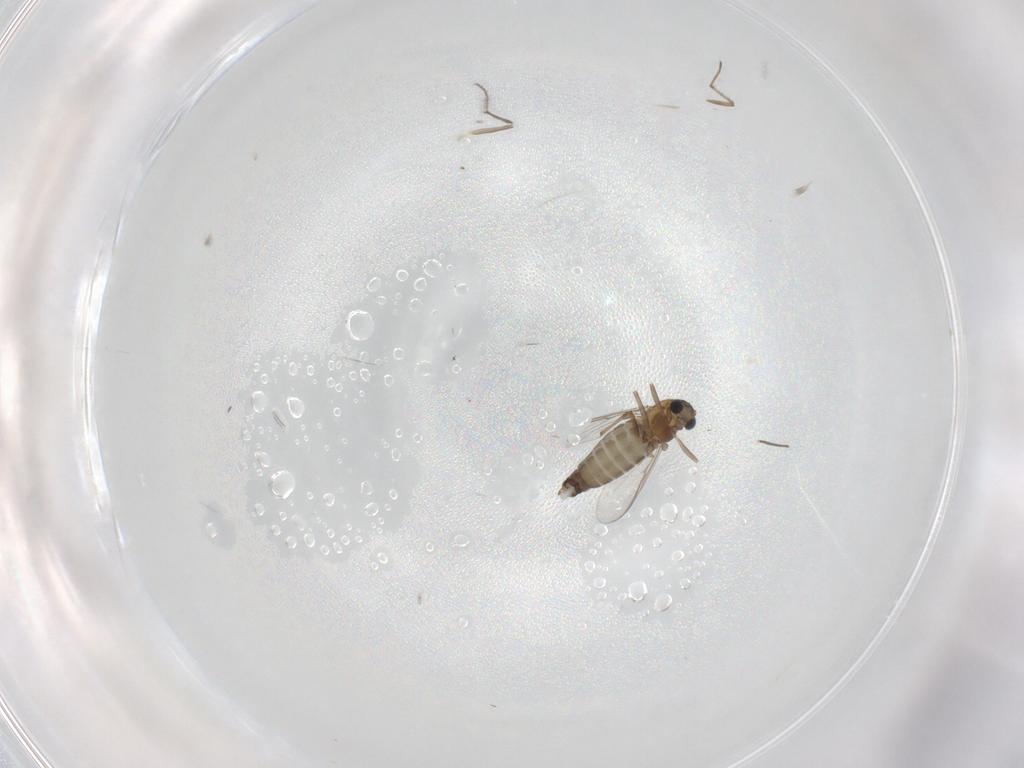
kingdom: Animalia
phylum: Arthropoda
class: Insecta
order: Diptera
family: Chironomidae
